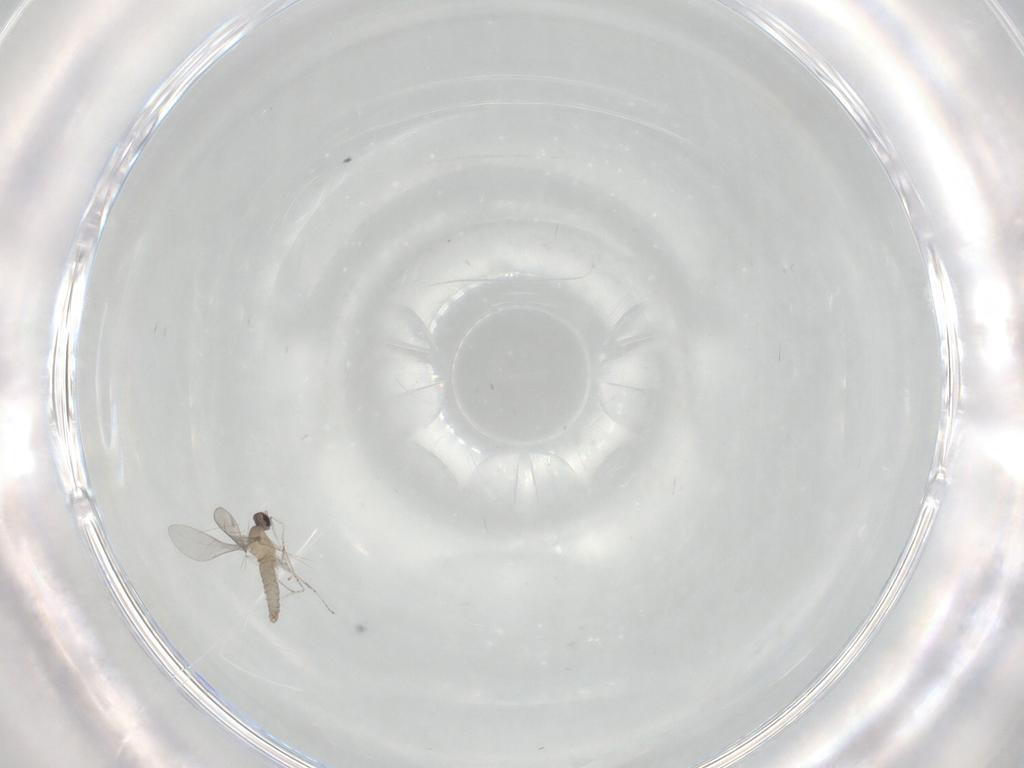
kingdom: Animalia
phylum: Arthropoda
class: Insecta
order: Diptera
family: Cecidomyiidae
